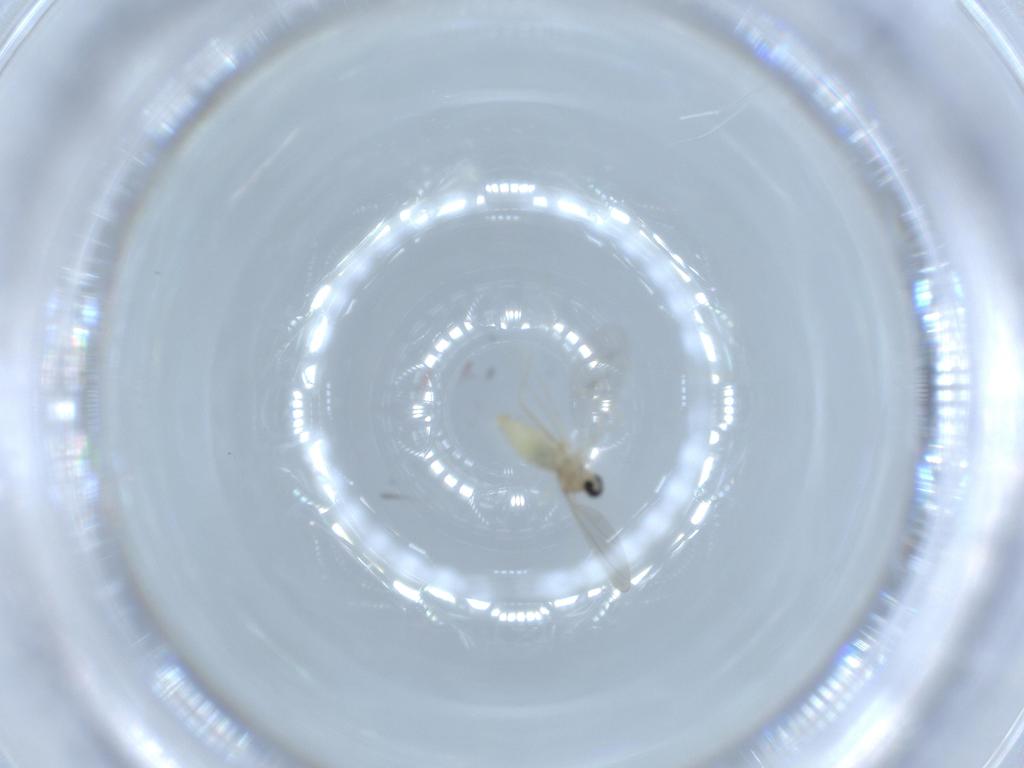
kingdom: Animalia
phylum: Arthropoda
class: Insecta
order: Diptera
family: Cecidomyiidae
